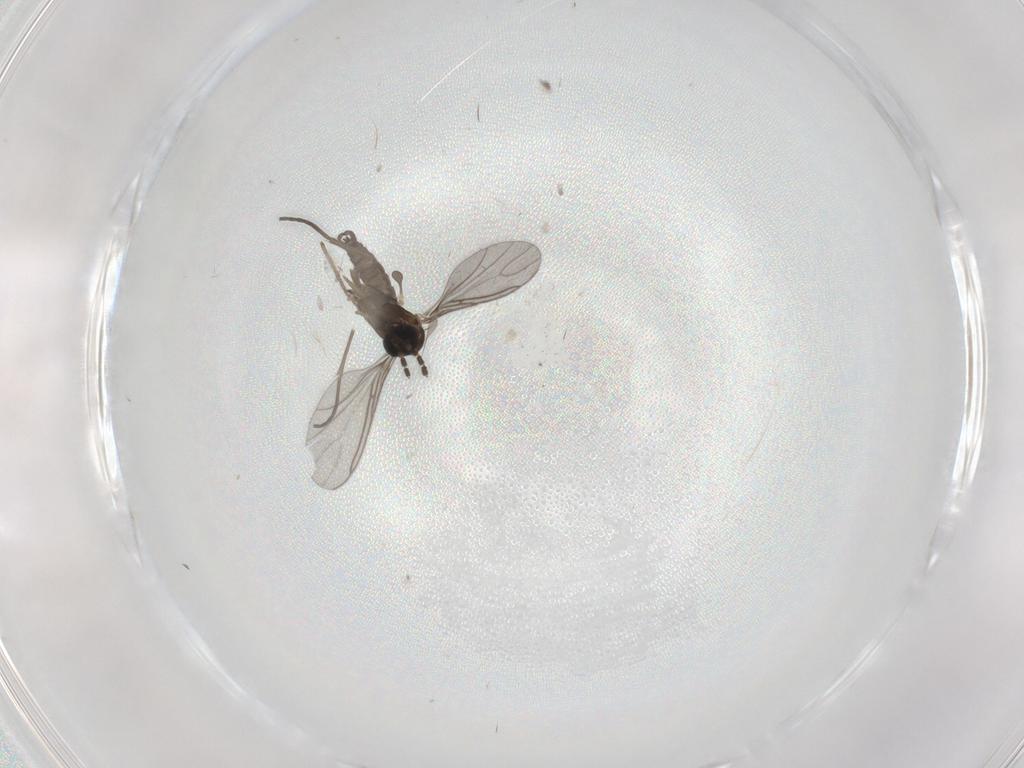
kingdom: Animalia
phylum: Arthropoda
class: Insecta
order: Diptera
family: Sciaridae
